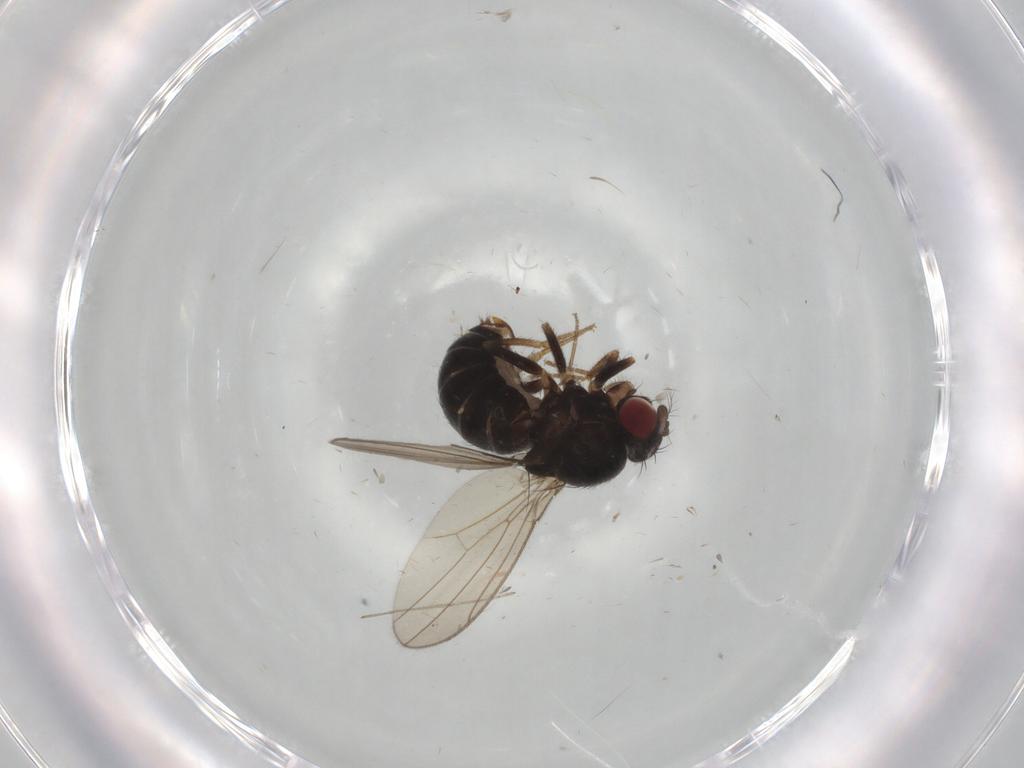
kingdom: Animalia
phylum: Arthropoda
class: Insecta
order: Diptera
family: Drosophilidae
